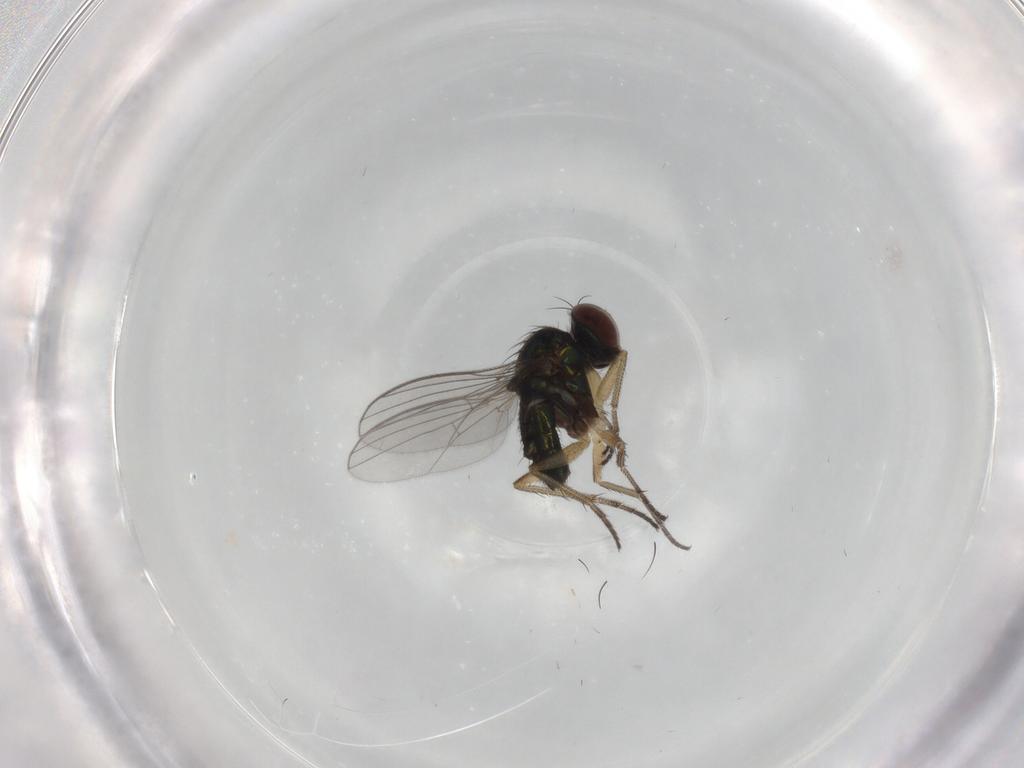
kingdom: Animalia
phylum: Arthropoda
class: Insecta
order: Diptera
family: Dolichopodidae
